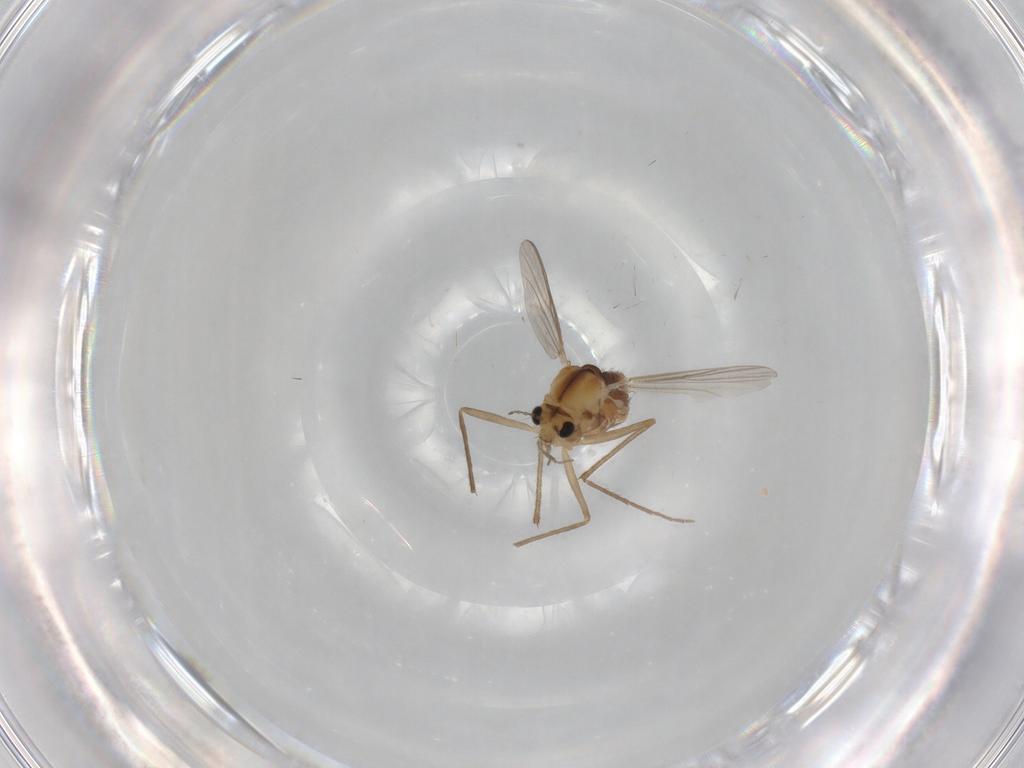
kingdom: Animalia
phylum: Arthropoda
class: Insecta
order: Diptera
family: Chironomidae
